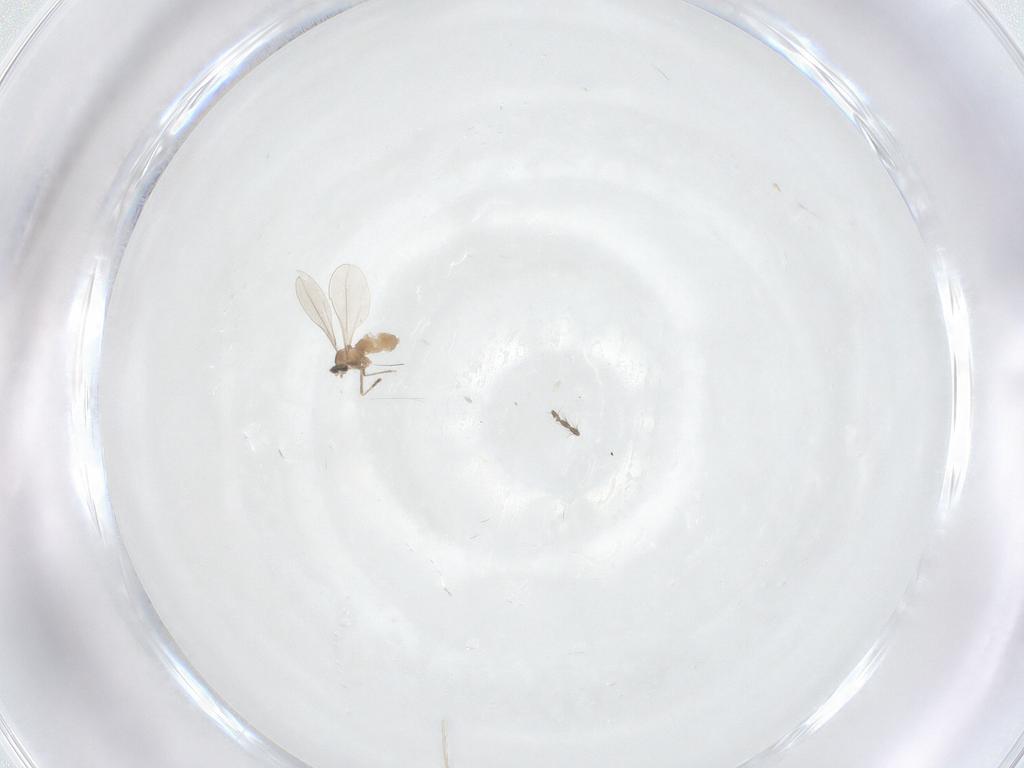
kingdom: Animalia
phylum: Arthropoda
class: Insecta
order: Diptera
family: Limoniidae
